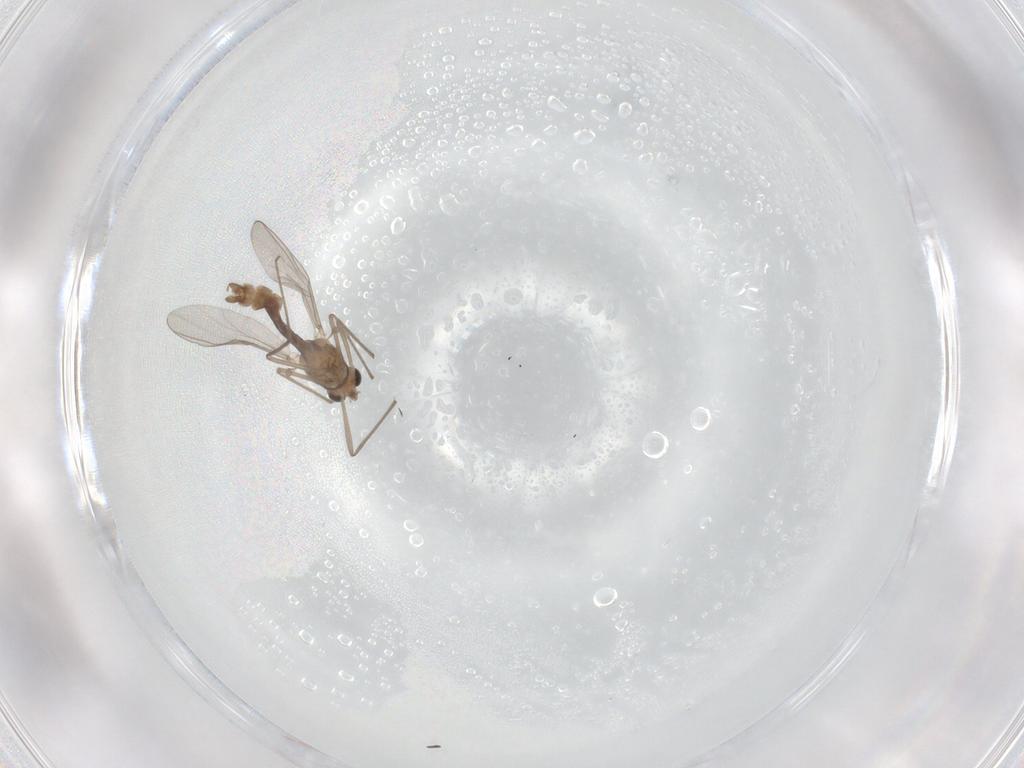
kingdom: Animalia
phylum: Arthropoda
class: Insecta
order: Diptera
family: Chironomidae
